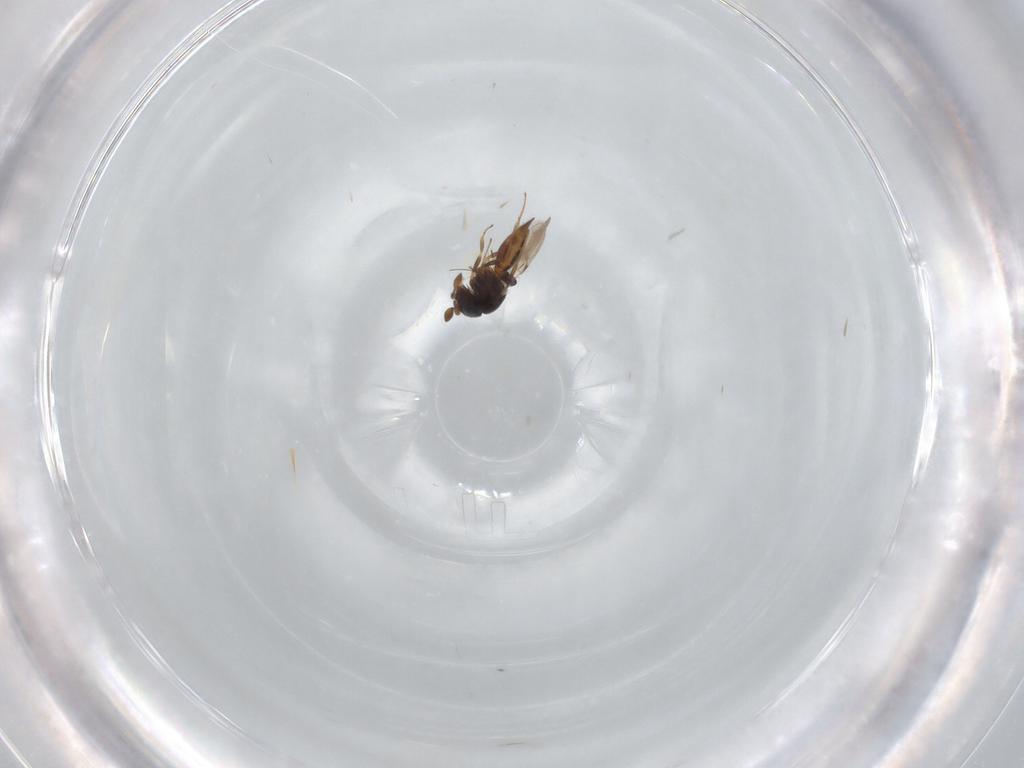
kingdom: Animalia
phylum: Arthropoda
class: Insecta
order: Hymenoptera
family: Scelionidae
